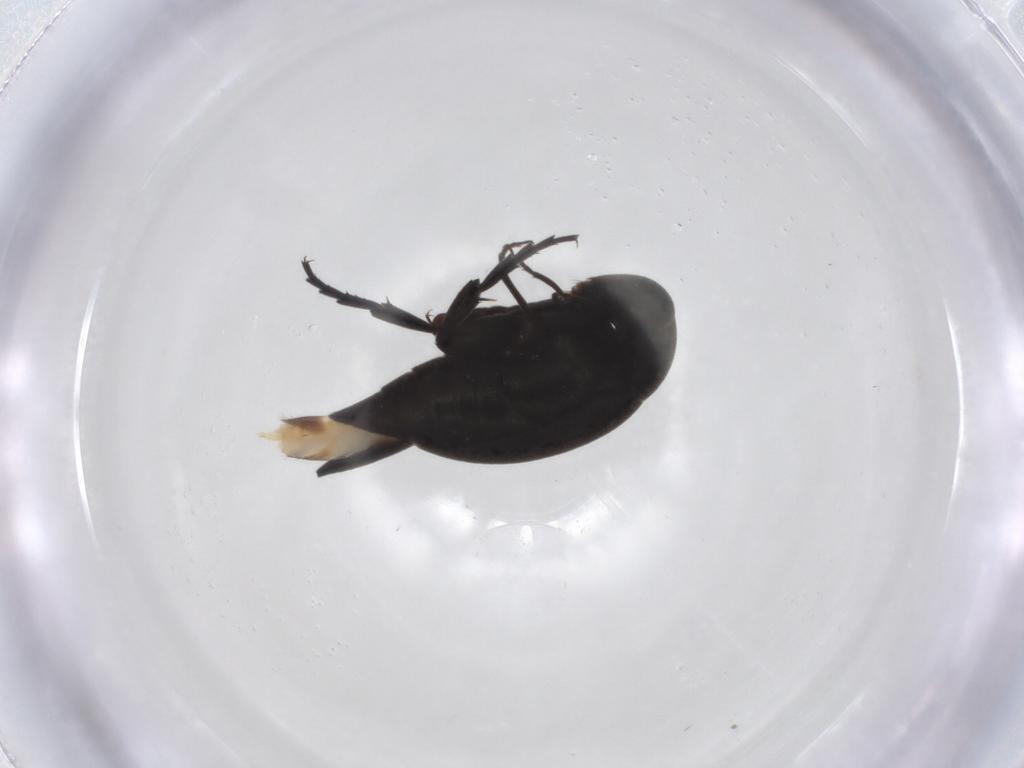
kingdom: Animalia
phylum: Arthropoda
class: Insecta
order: Coleoptera
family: Mordellidae
